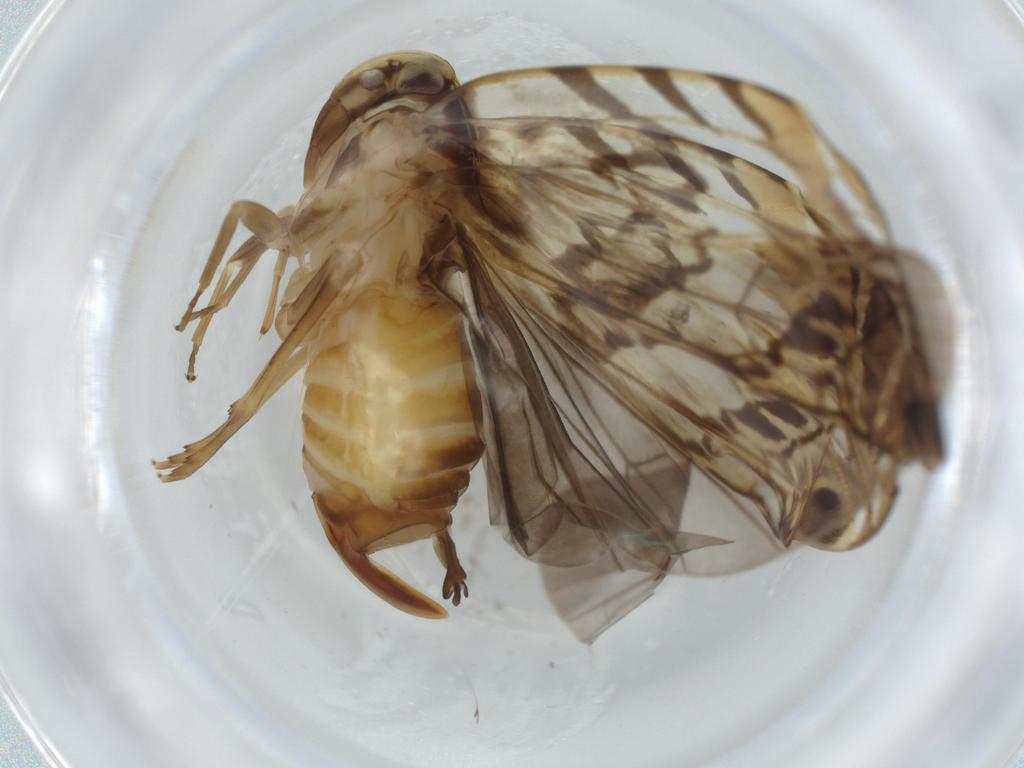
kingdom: Animalia
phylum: Arthropoda
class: Insecta
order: Hemiptera
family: Cixiidae
